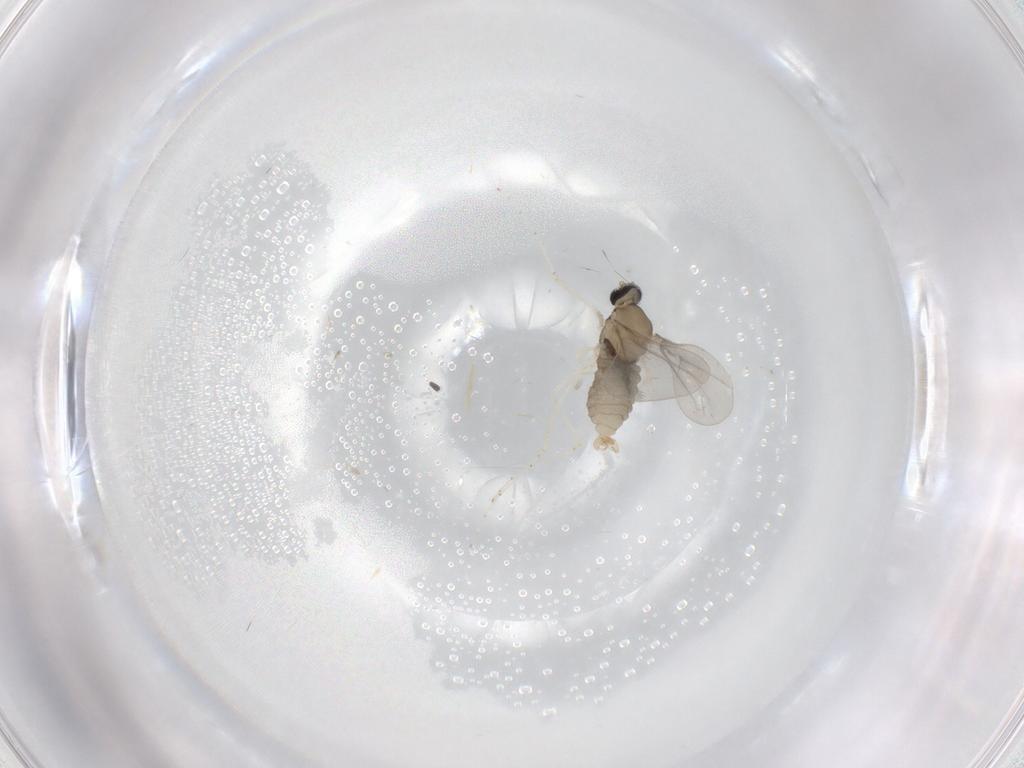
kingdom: Animalia
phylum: Arthropoda
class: Insecta
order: Diptera
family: Cecidomyiidae
